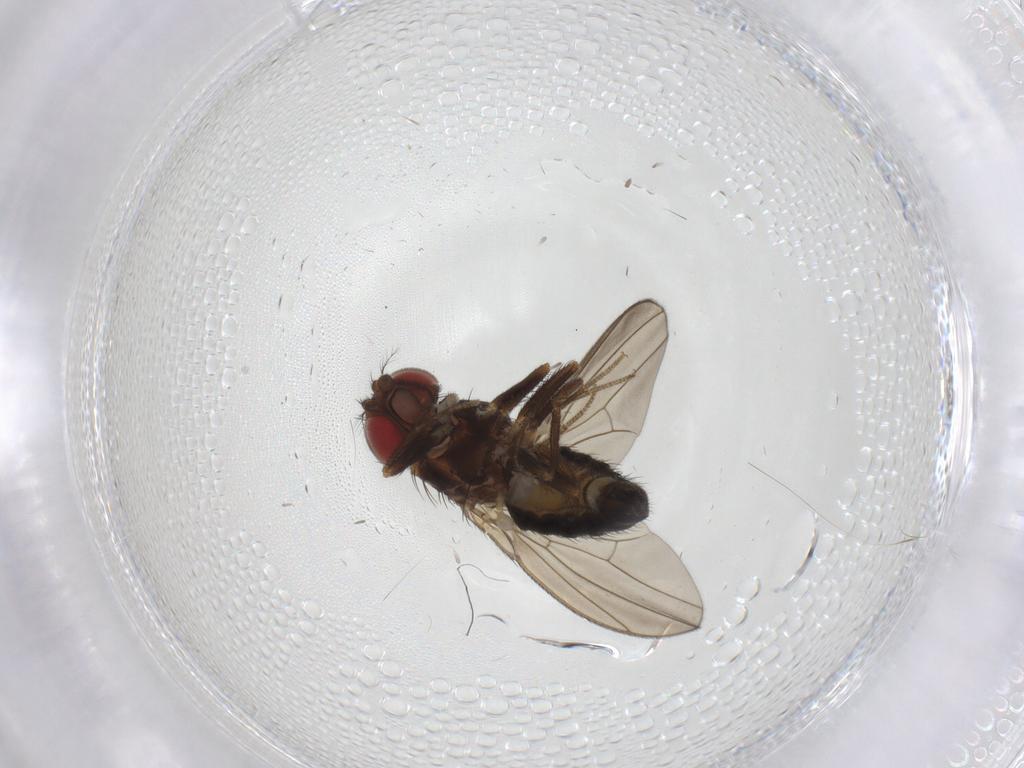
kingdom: Animalia
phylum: Arthropoda
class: Insecta
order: Diptera
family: Drosophilidae
